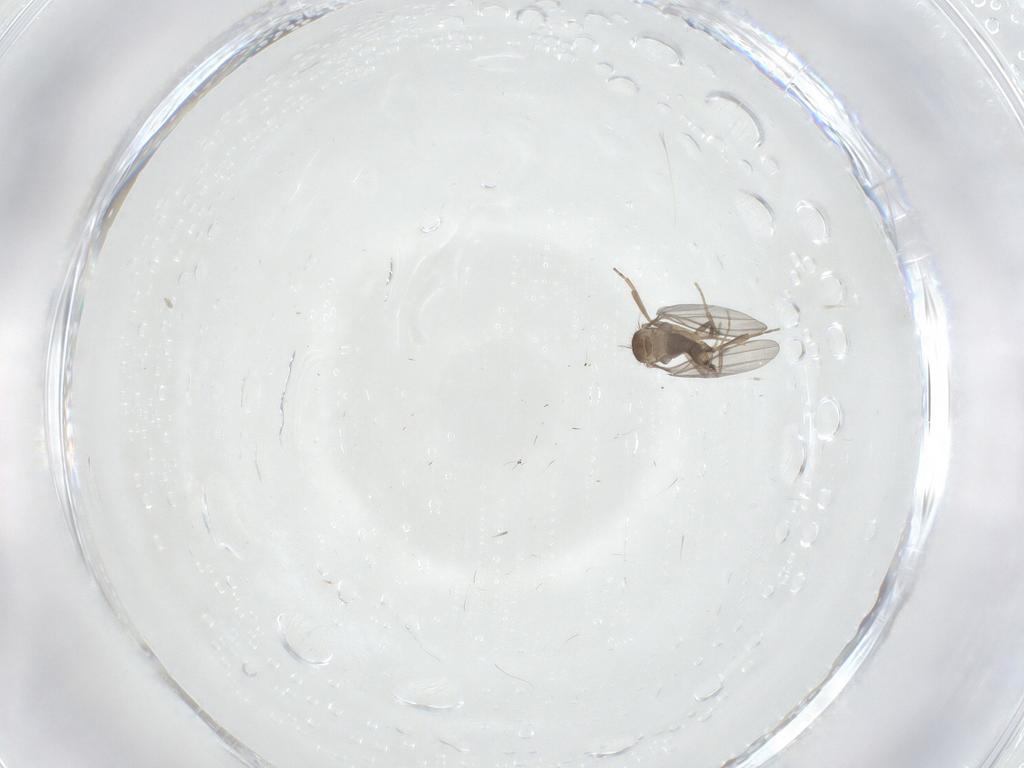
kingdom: Animalia
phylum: Arthropoda
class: Insecta
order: Diptera
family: Ceratopogonidae
